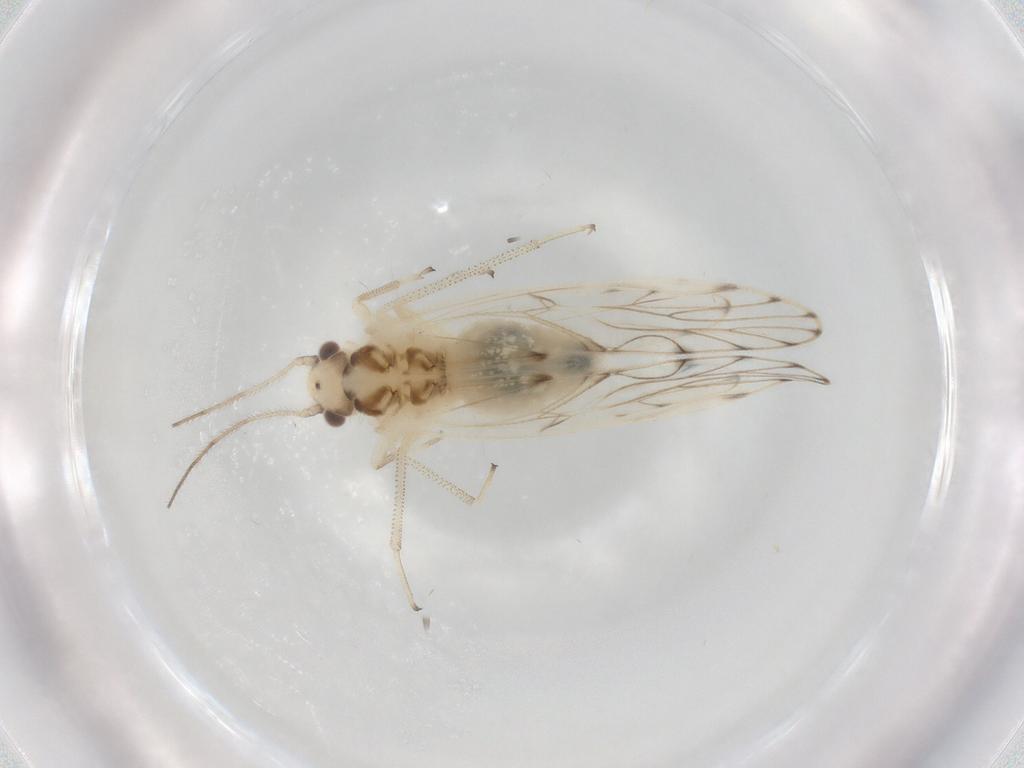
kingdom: Animalia
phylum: Arthropoda
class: Insecta
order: Psocodea
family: Philotarsidae
